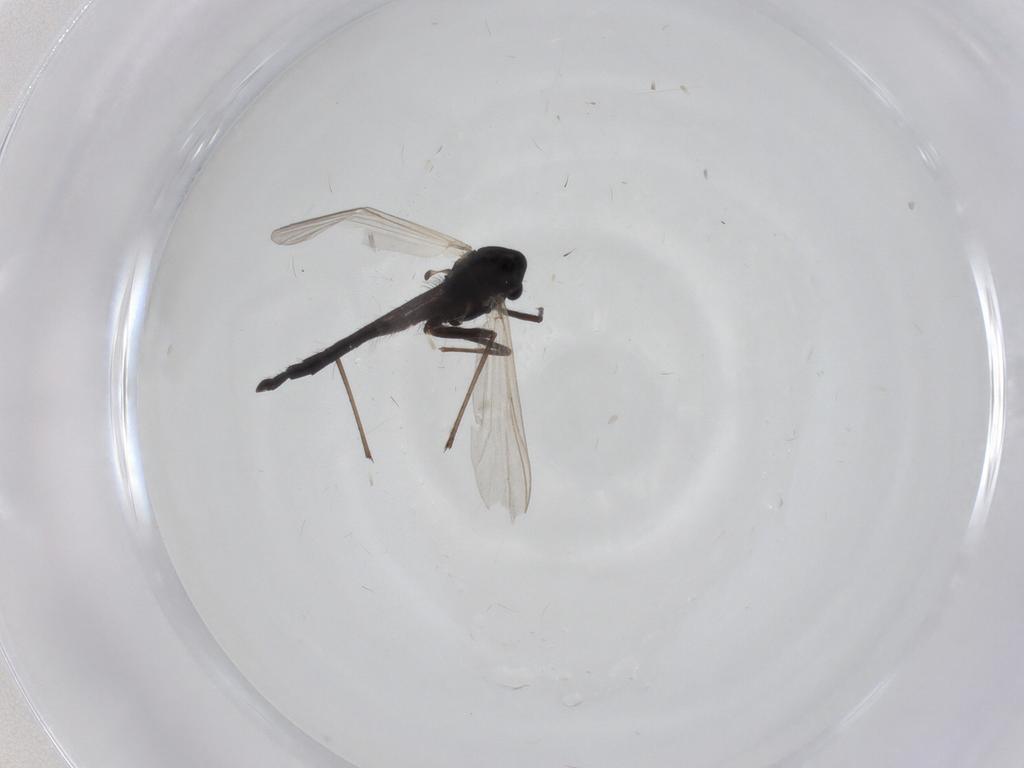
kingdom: Animalia
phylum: Arthropoda
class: Insecta
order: Diptera
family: Chironomidae
